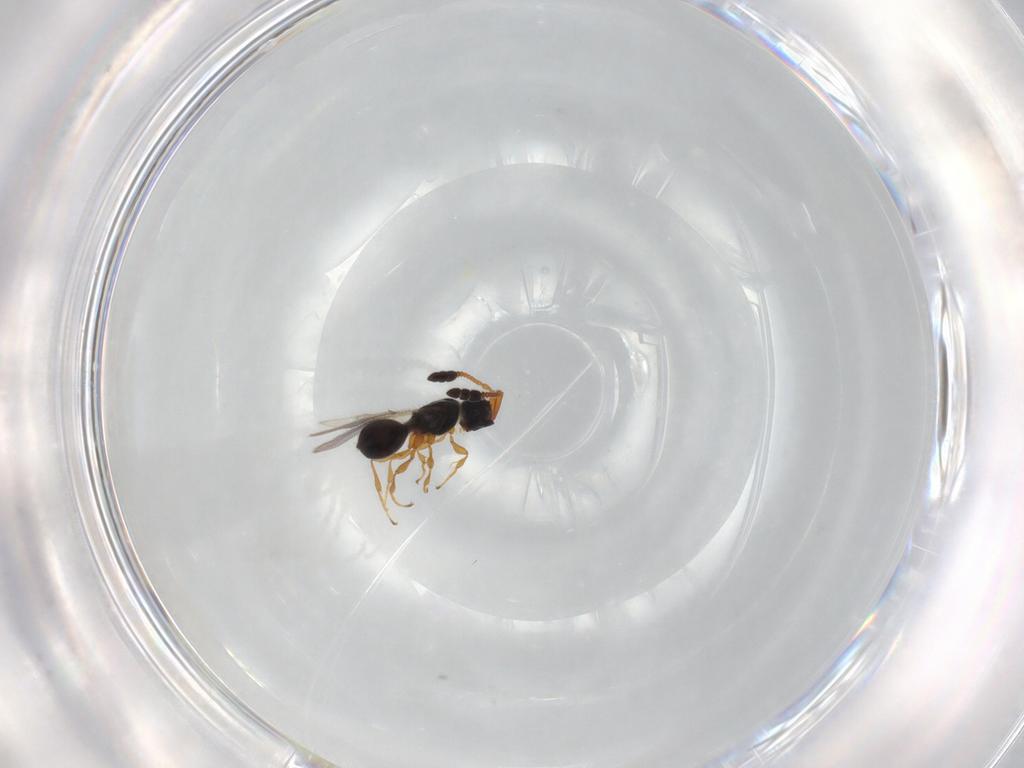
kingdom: Animalia
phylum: Arthropoda
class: Insecta
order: Hymenoptera
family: Diapriidae
